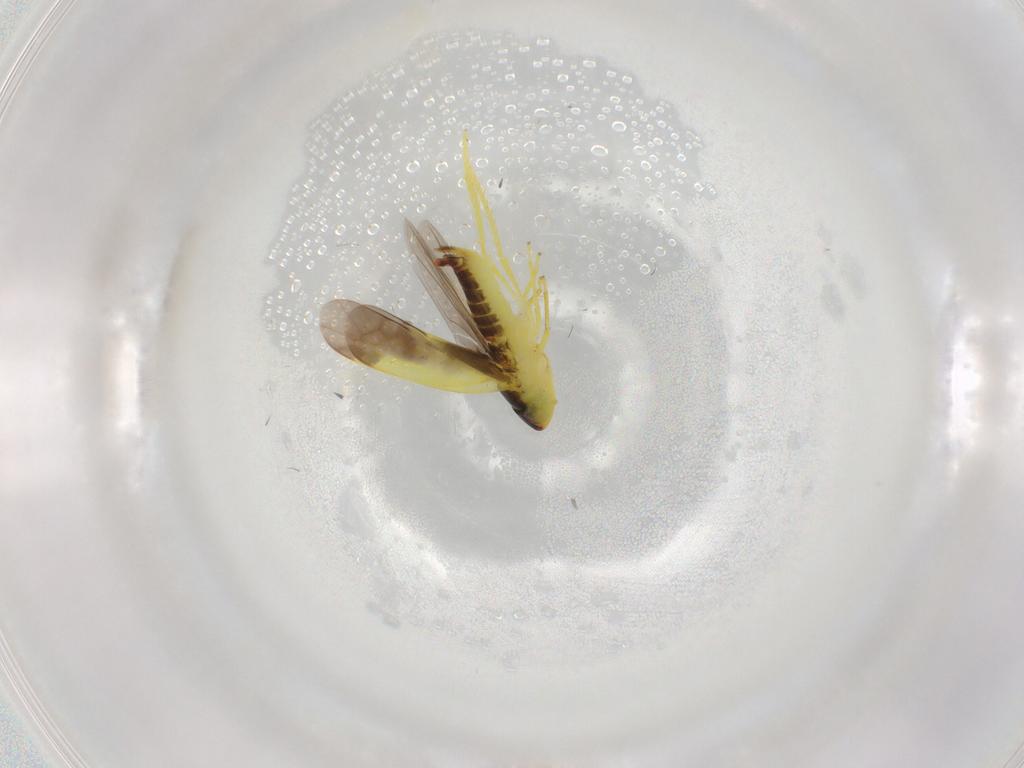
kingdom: Animalia
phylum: Arthropoda
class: Insecta
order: Hemiptera
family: Cicadellidae
